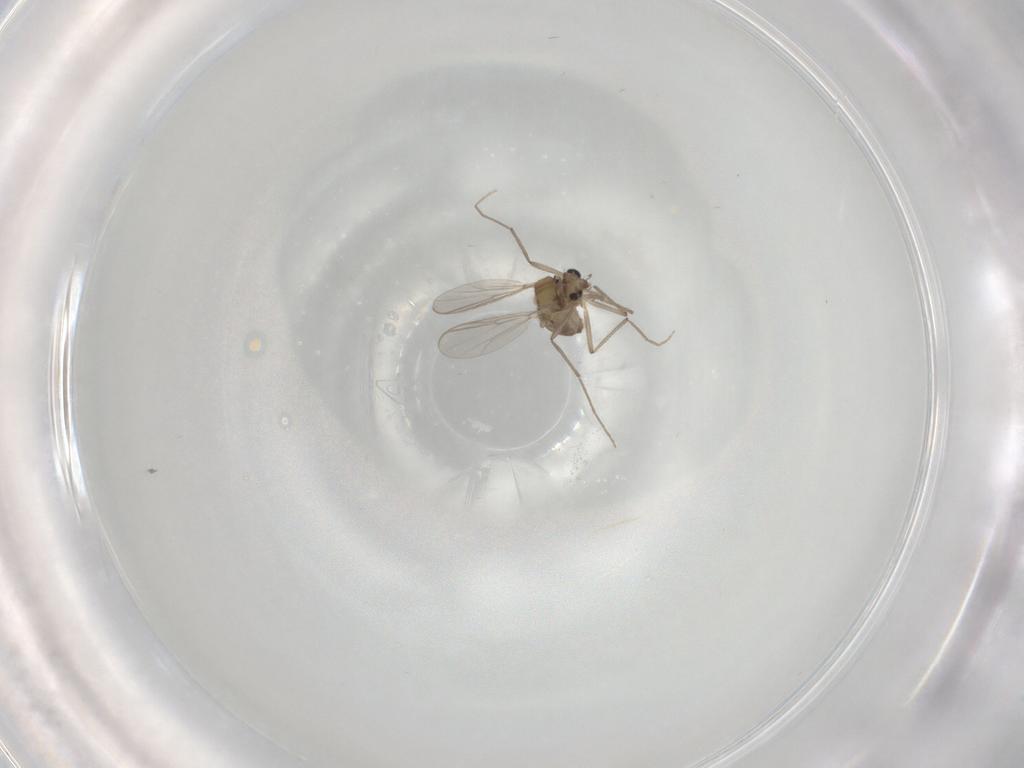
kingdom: Animalia
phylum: Arthropoda
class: Insecta
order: Diptera
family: Chironomidae
